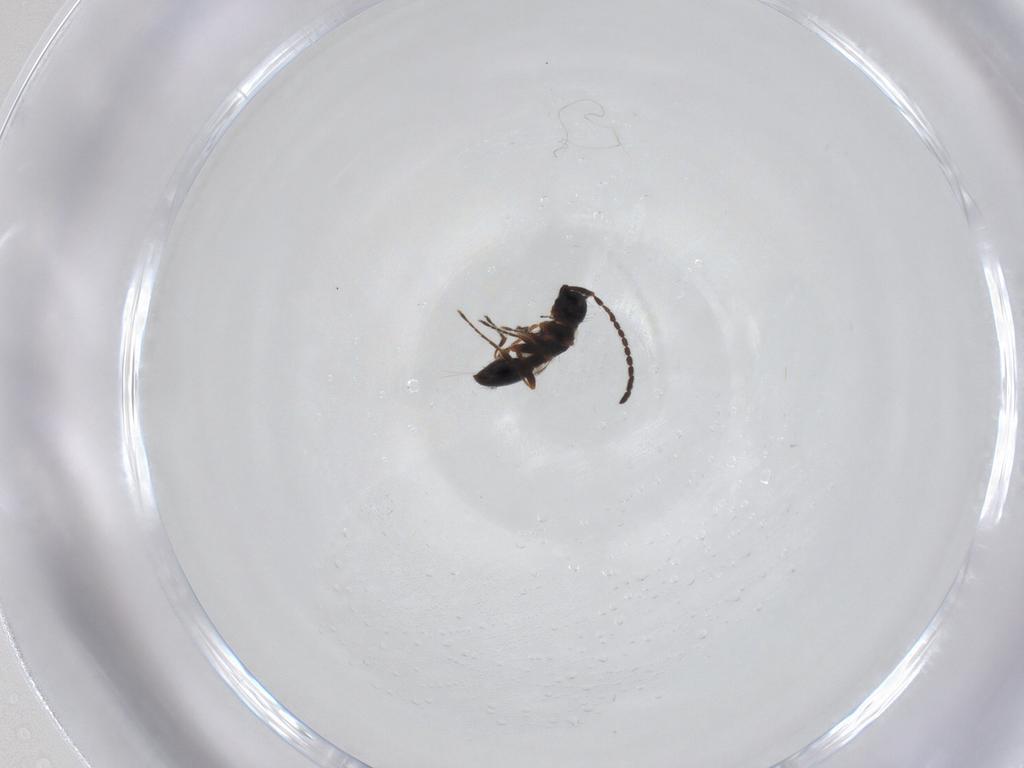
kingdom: Animalia
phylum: Arthropoda
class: Insecta
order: Hymenoptera
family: Diapriidae
